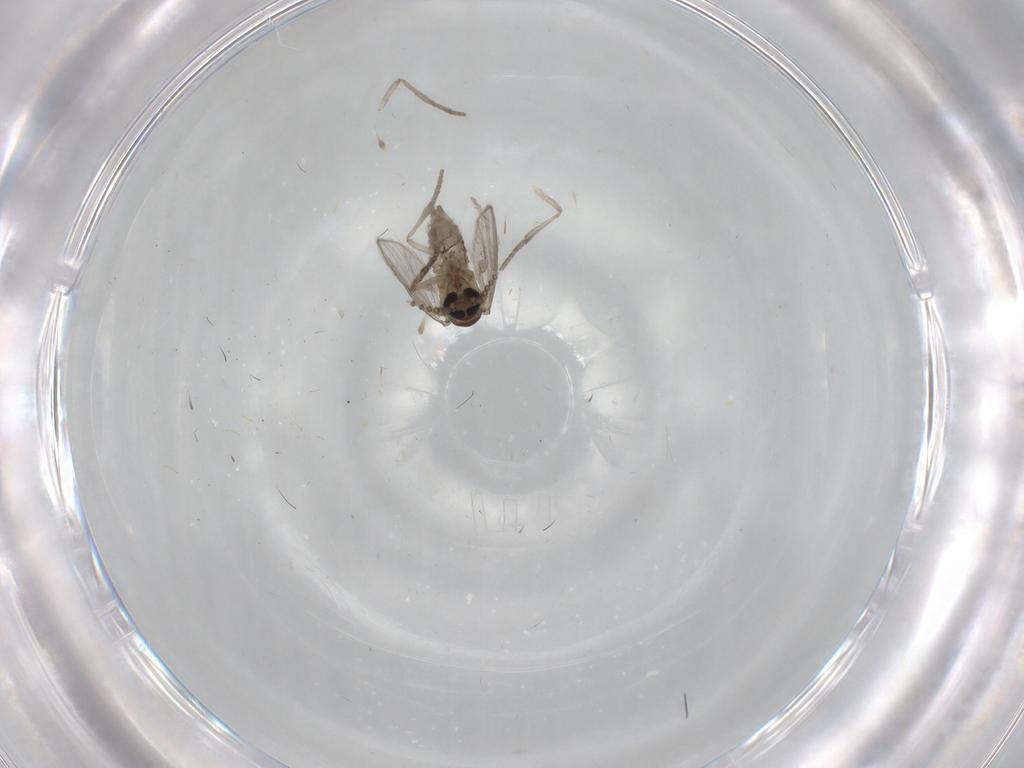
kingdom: Animalia
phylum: Arthropoda
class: Insecta
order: Diptera
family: Psychodidae
